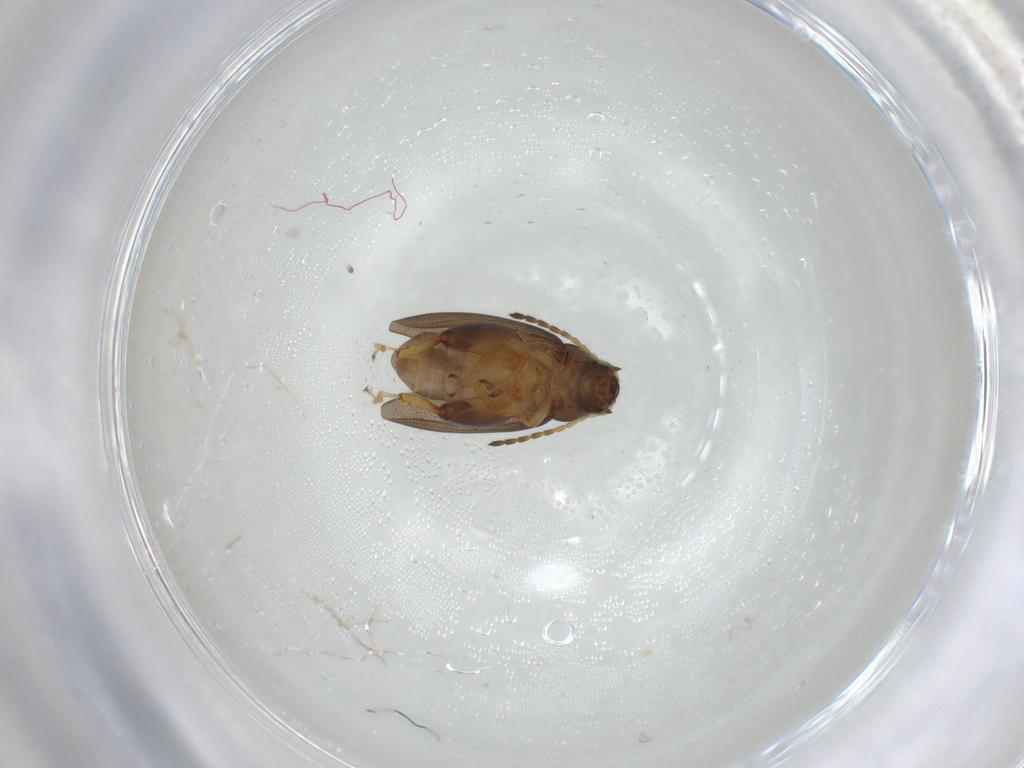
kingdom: Animalia
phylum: Arthropoda
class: Insecta
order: Coleoptera
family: Chrysomelidae
